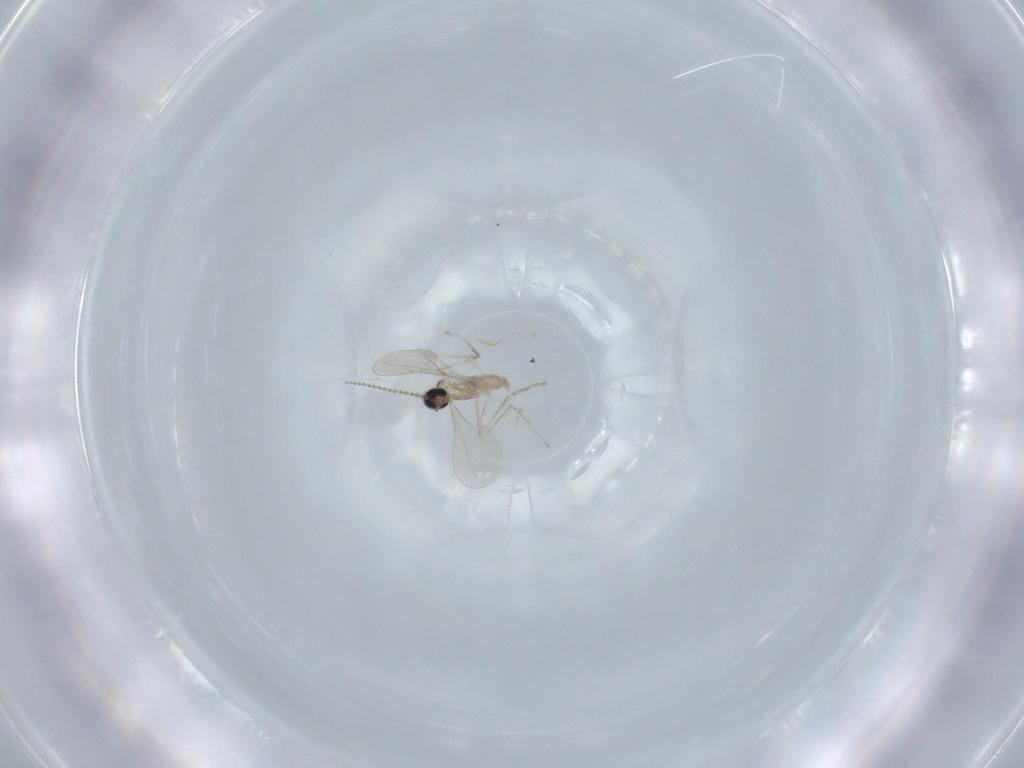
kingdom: Animalia
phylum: Arthropoda
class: Insecta
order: Diptera
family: Cecidomyiidae
